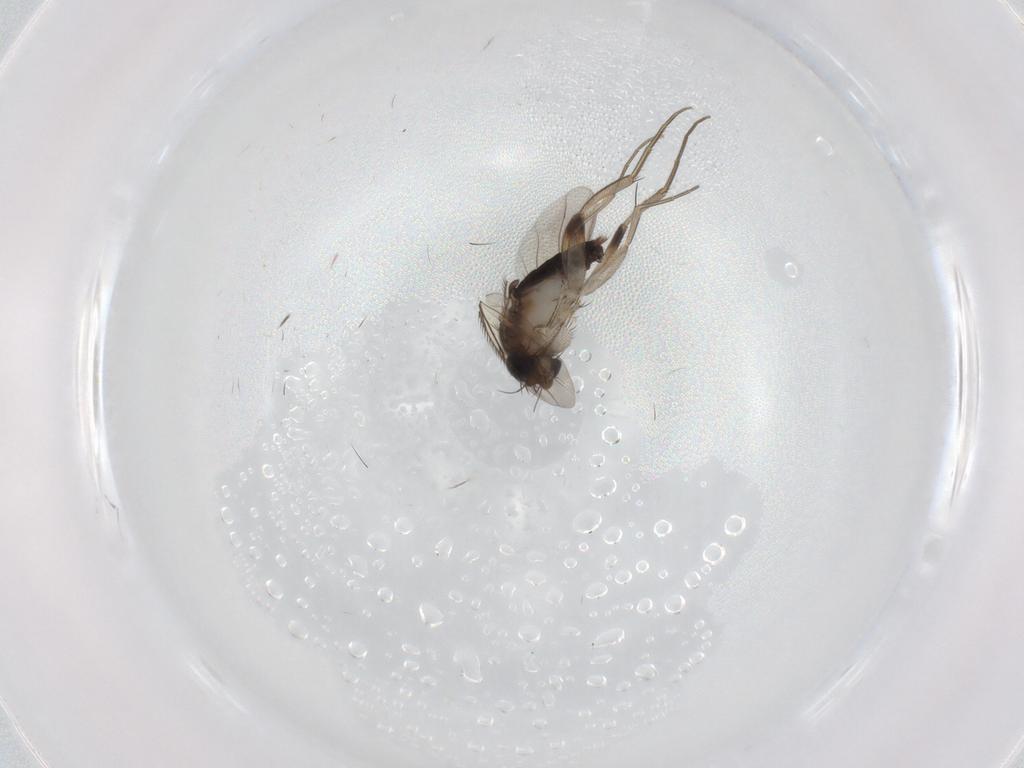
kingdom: Animalia
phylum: Arthropoda
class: Insecta
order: Diptera
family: Phoridae
